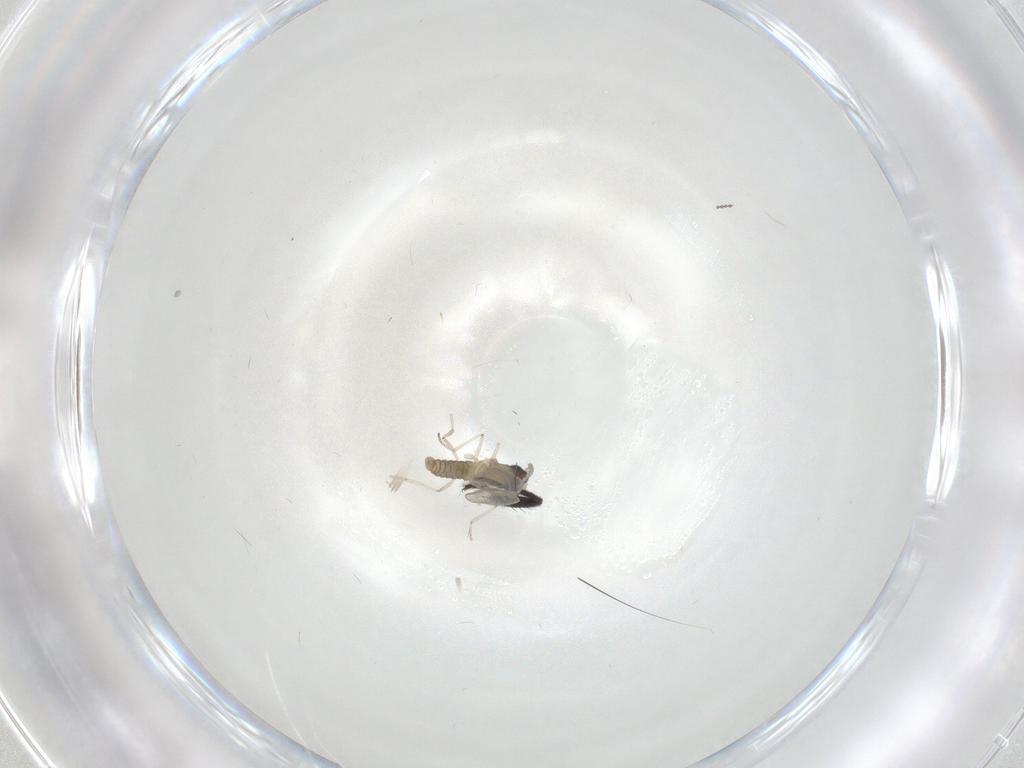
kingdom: Animalia
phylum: Arthropoda
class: Insecta
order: Diptera
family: Cecidomyiidae
